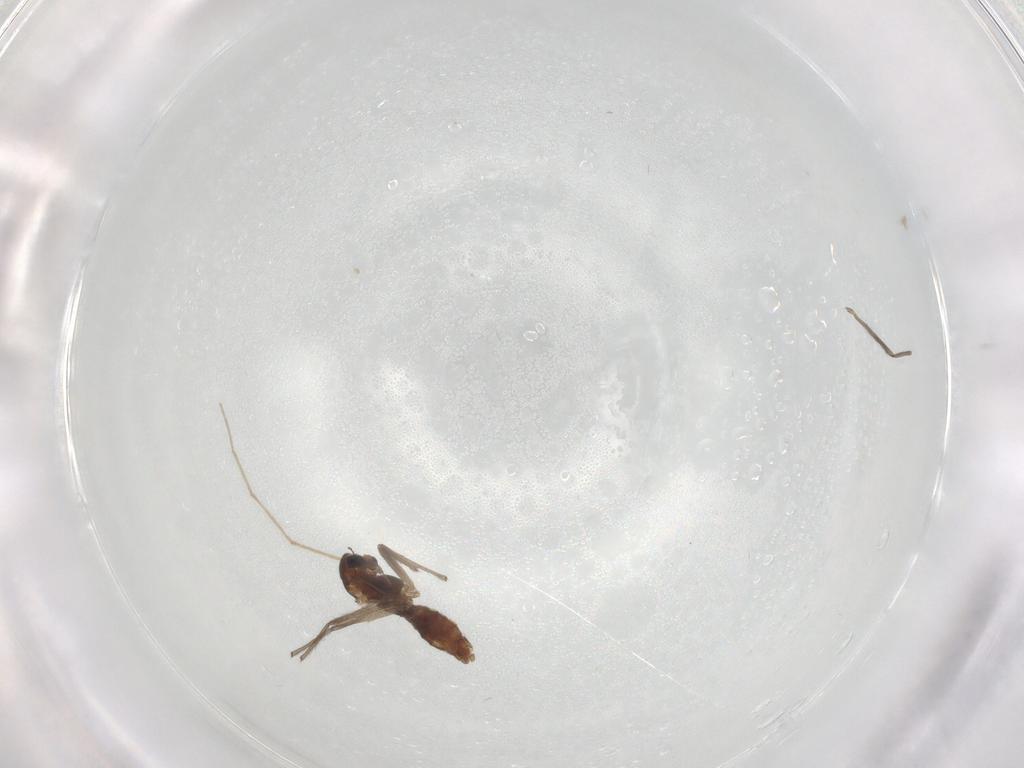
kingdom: Animalia
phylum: Arthropoda
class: Insecta
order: Diptera
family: Chironomidae
